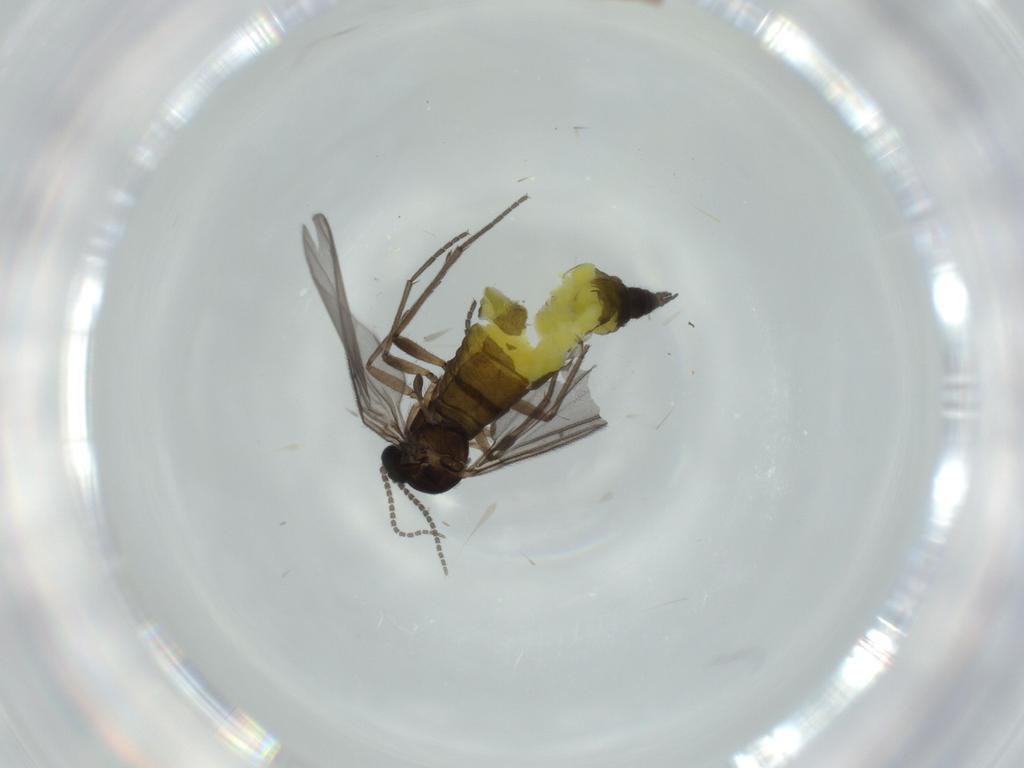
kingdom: Animalia
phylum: Arthropoda
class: Insecta
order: Diptera
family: Sciaridae
